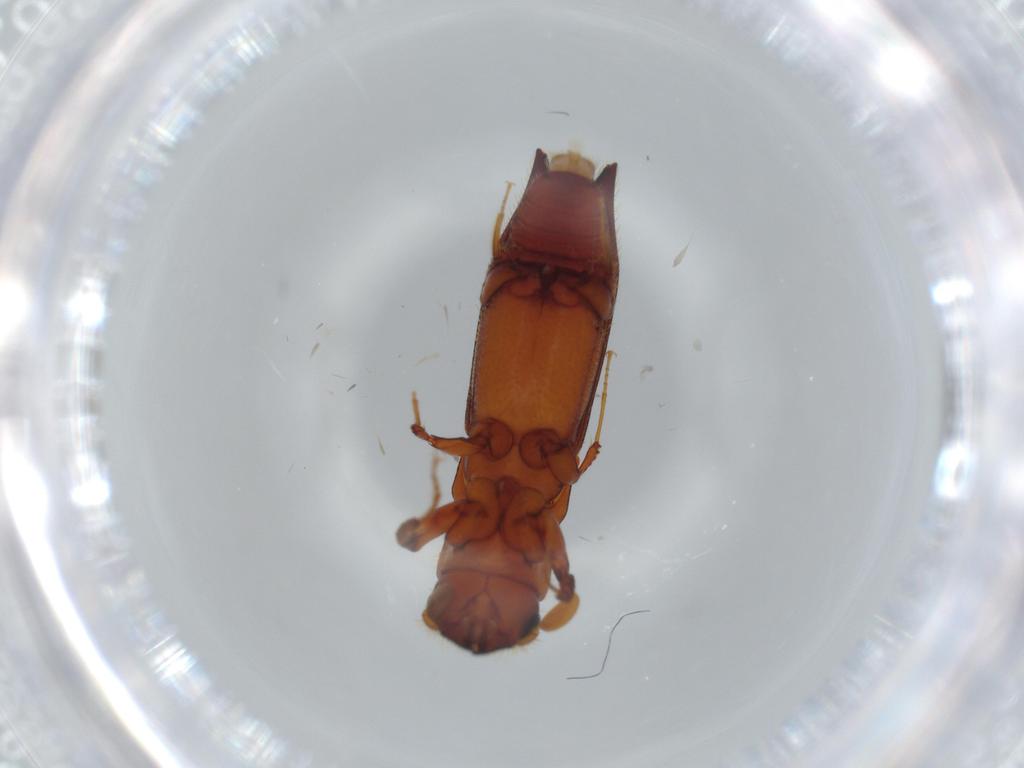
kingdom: Animalia
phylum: Arthropoda
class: Insecta
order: Coleoptera
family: Curculionidae
